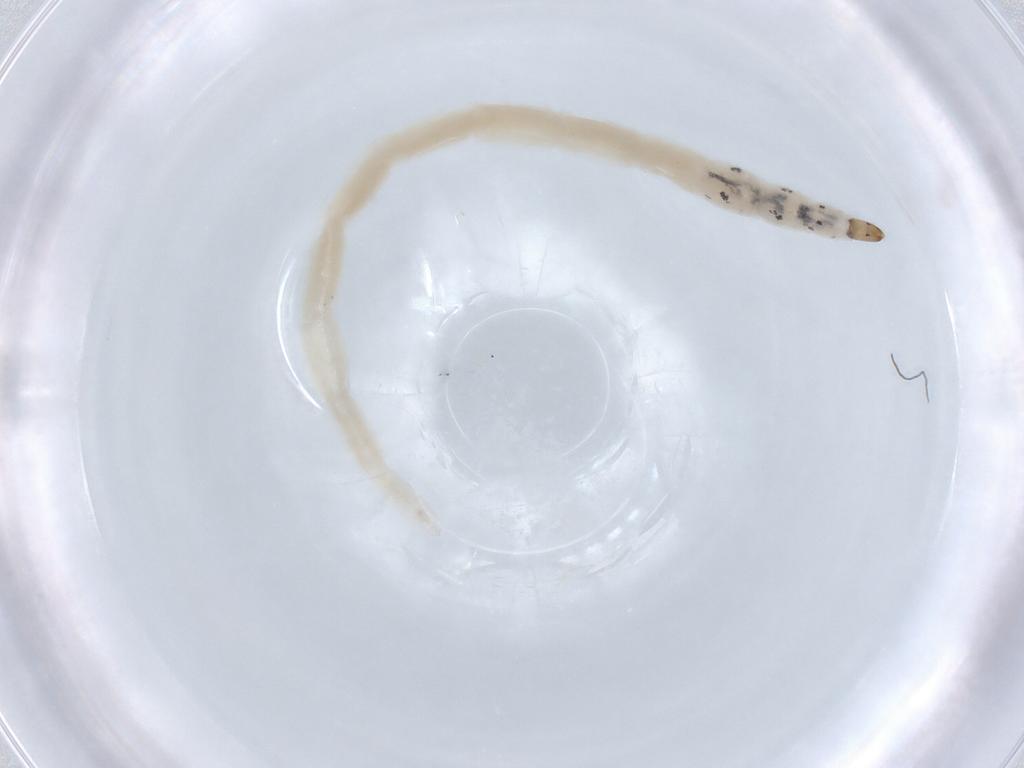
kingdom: Animalia
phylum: Arthropoda
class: Insecta
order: Diptera
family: Ceratopogonidae
